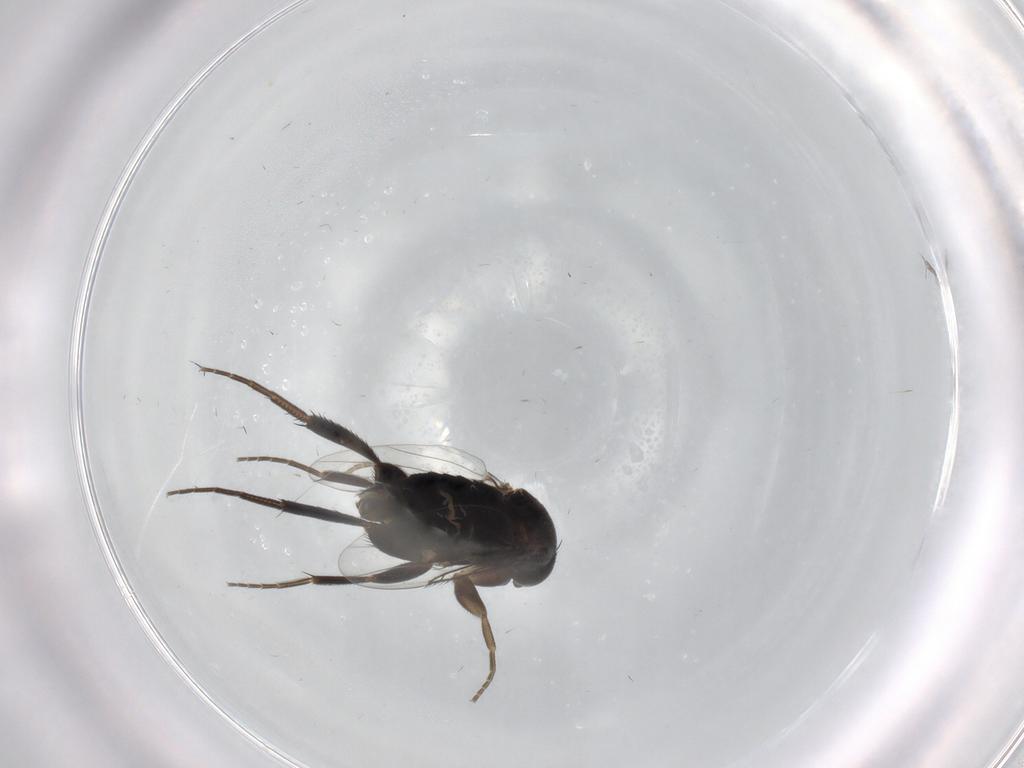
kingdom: Animalia
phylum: Arthropoda
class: Insecta
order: Diptera
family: Phoridae
